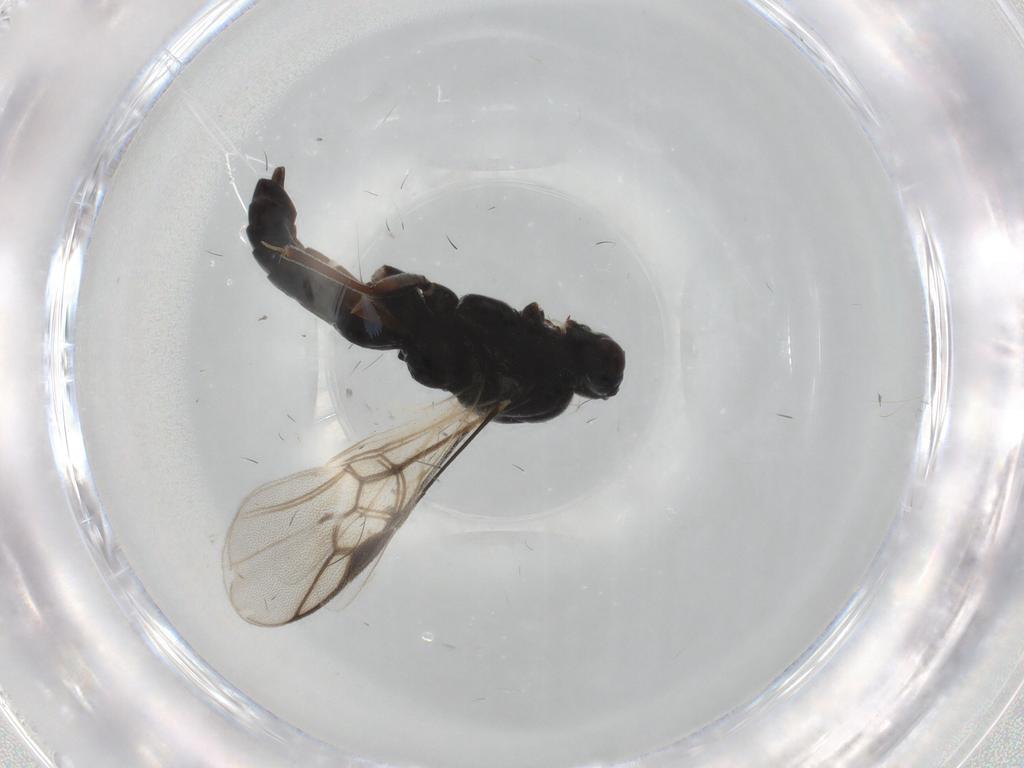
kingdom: Animalia
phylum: Arthropoda
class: Insecta
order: Hymenoptera
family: Braconidae
